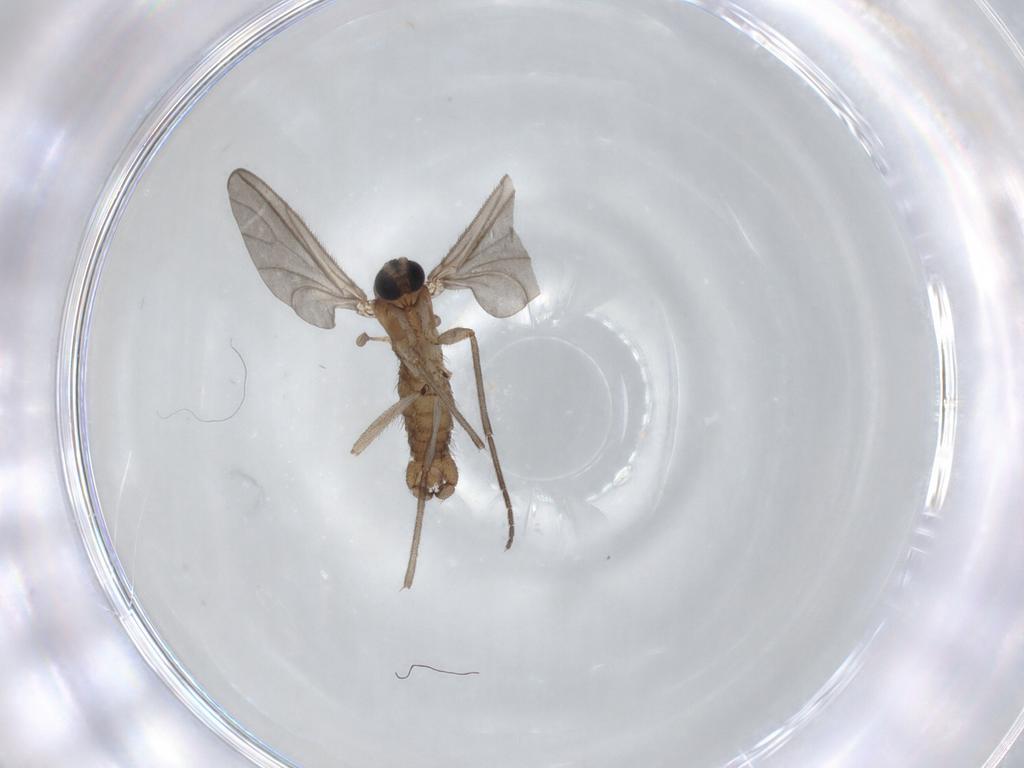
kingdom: Animalia
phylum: Arthropoda
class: Insecta
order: Diptera
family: Sciaridae
